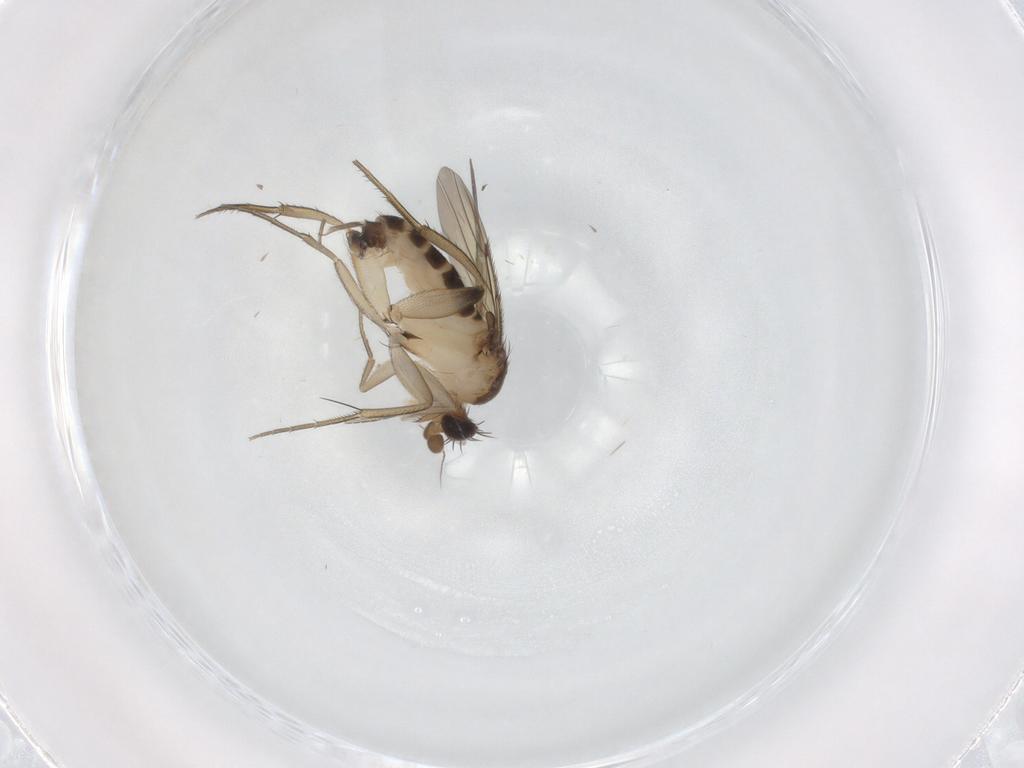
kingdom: Animalia
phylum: Arthropoda
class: Insecta
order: Diptera
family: Phoridae
